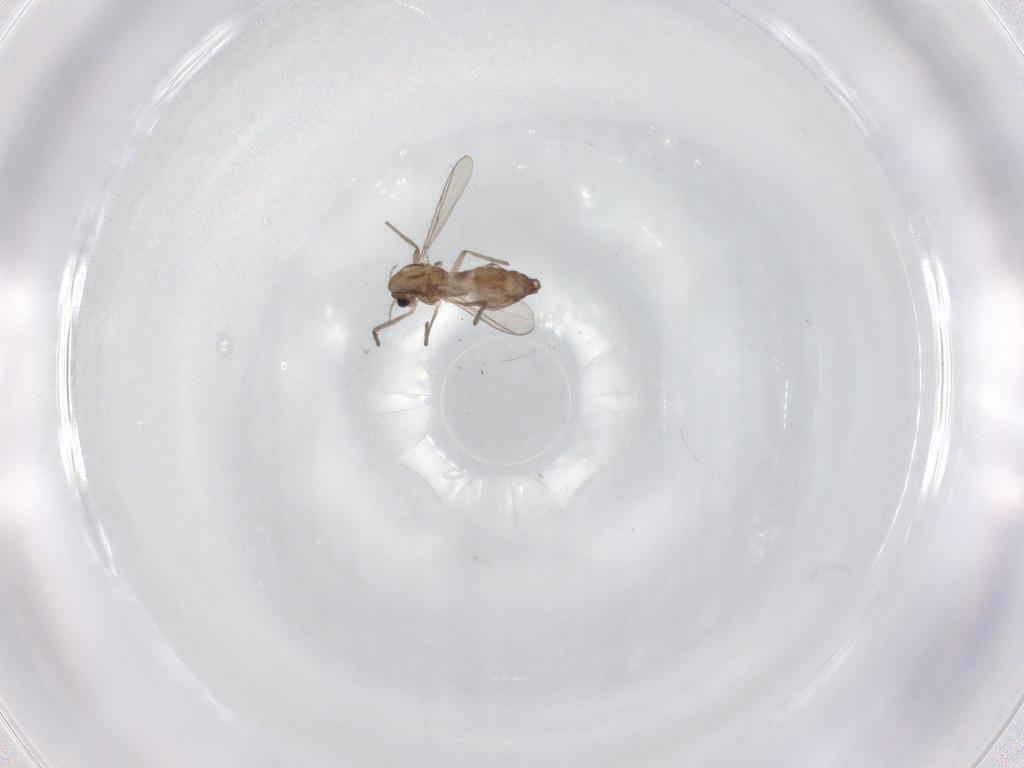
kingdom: Animalia
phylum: Arthropoda
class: Insecta
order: Diptera
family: Chironomidae
